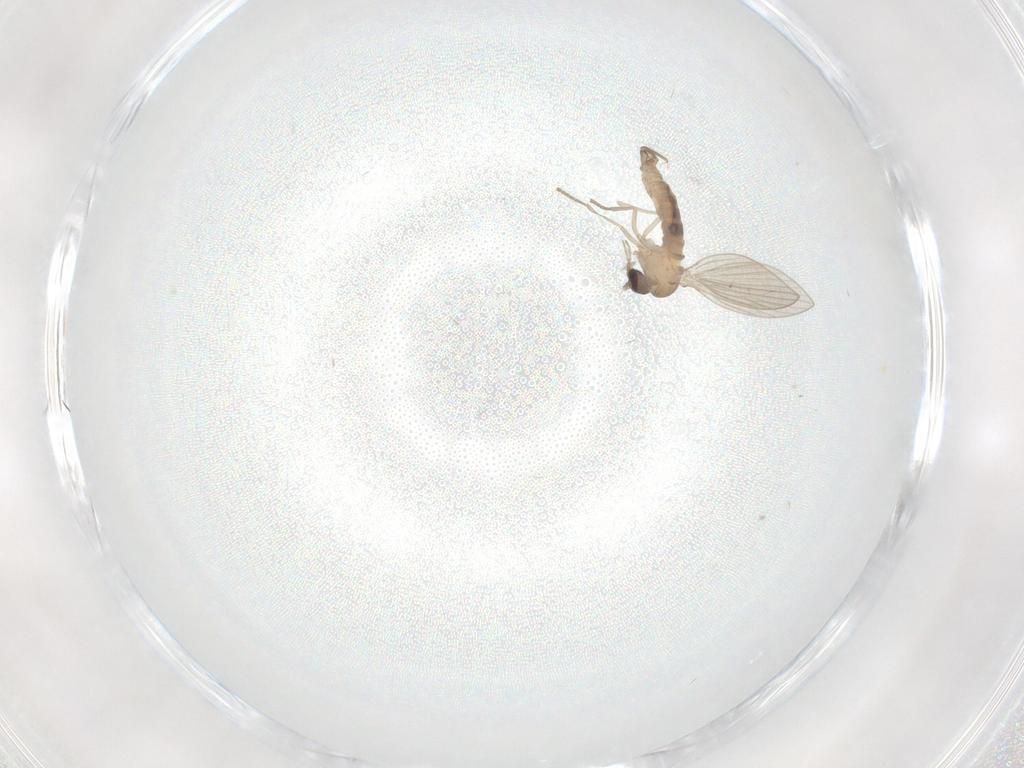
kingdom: Animalia
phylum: Arthropoda
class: Insecta
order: Diptera
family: Psychodidae
